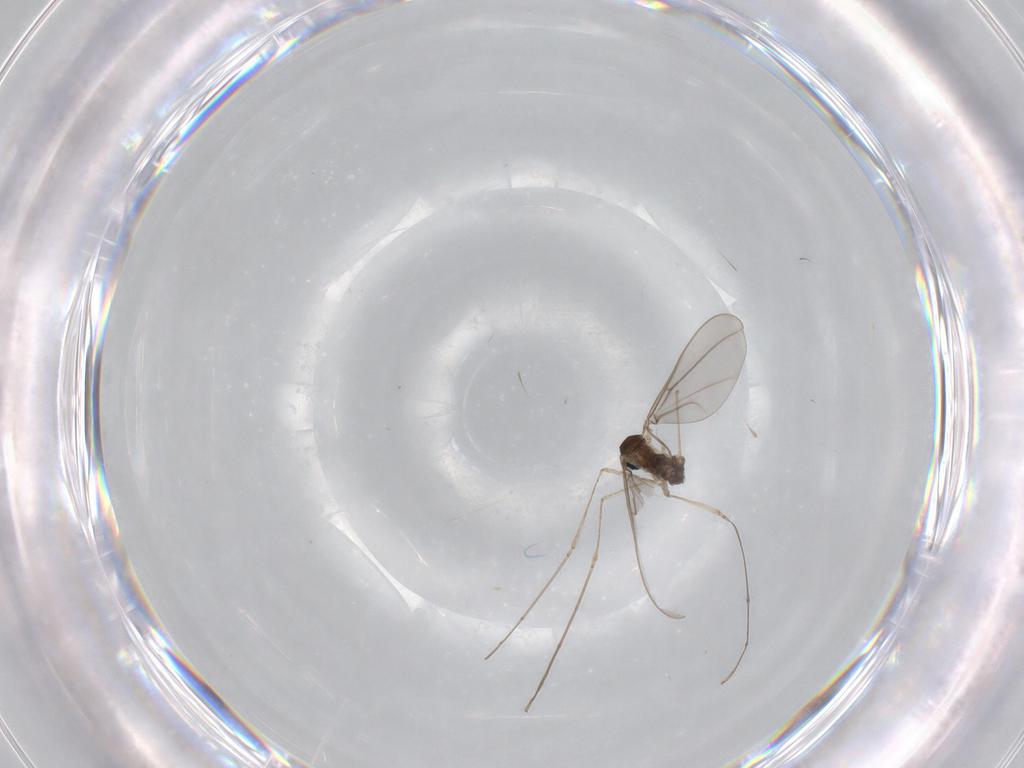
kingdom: Animalia
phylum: Arthropoda
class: Insecta
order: Diptera
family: Cecidomyiidae
